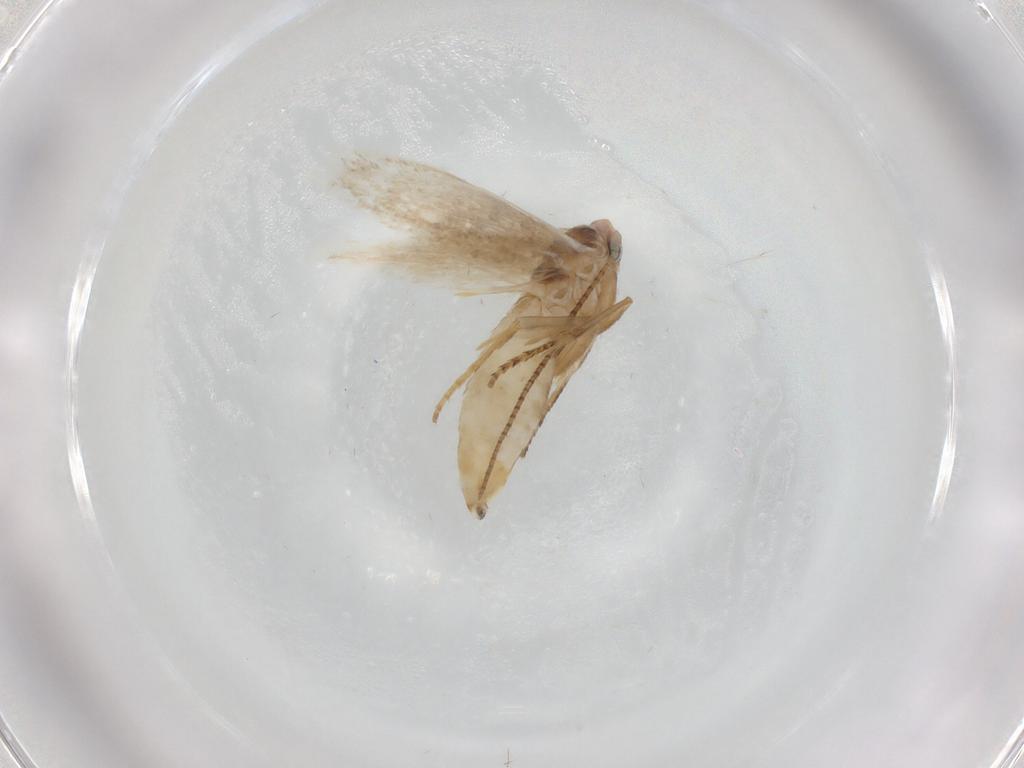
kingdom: Animalia
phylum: Arthropoda
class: Insecta
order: Lepidoptera
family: Bucculatricidae
